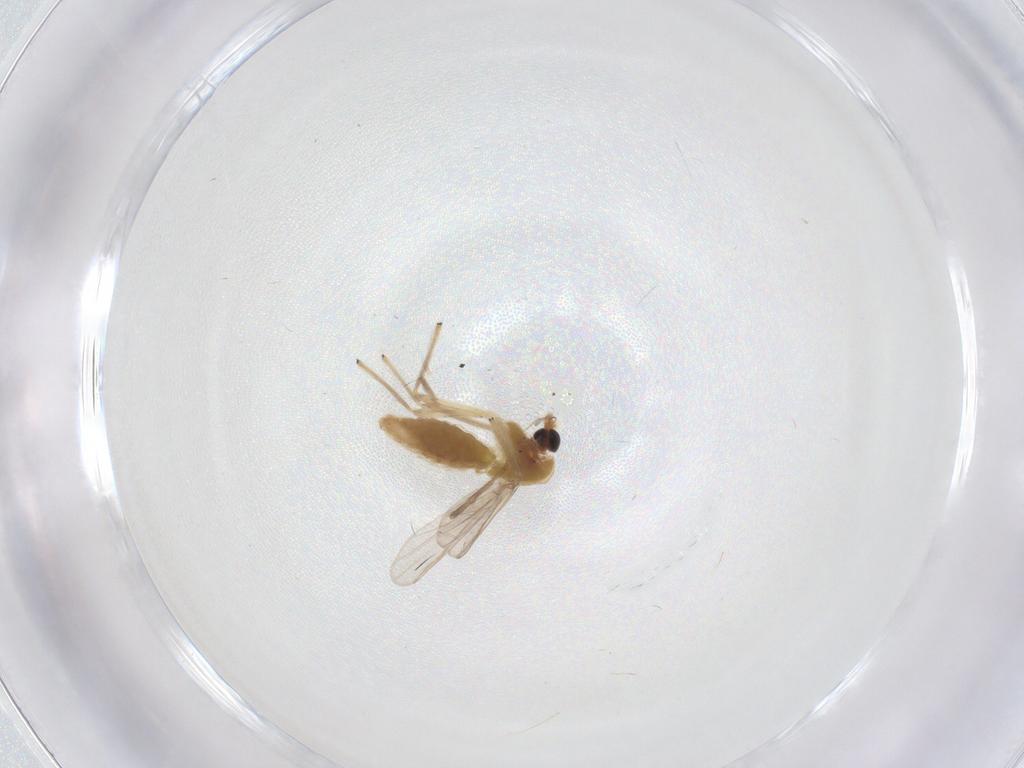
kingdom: Animalia
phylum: Arthropoda
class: Insecta
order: Diptera
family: Chironomidae
